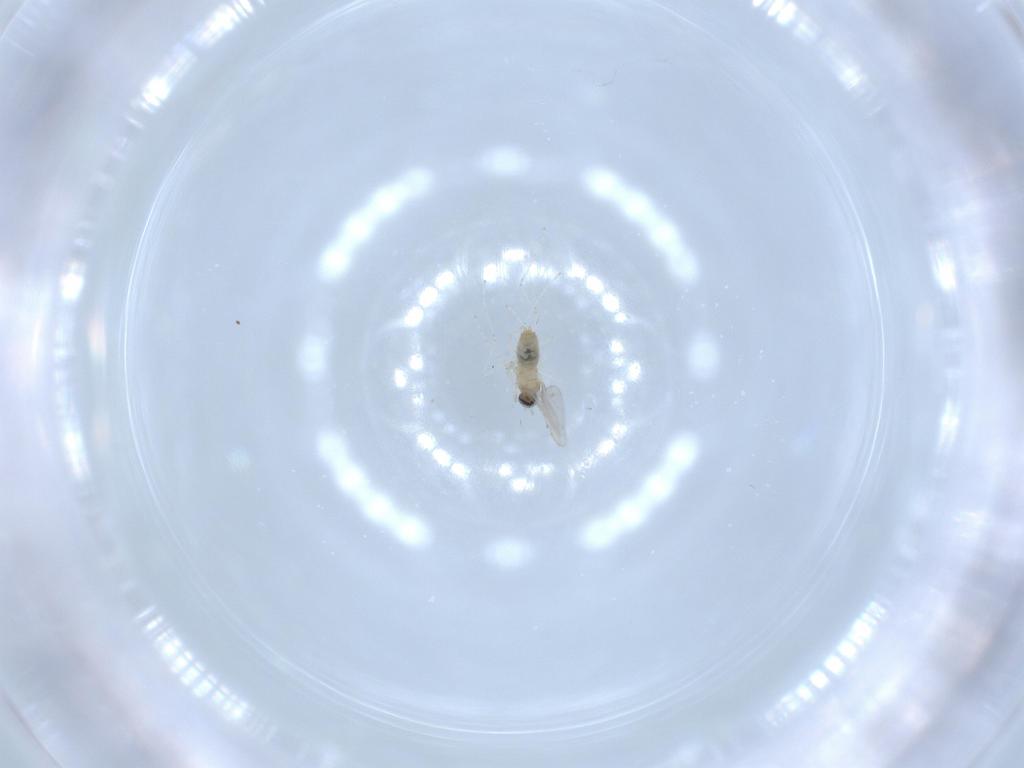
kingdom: Animalia
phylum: Arthropoda
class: Insecta
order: Diptera
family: Cecidomyiidae
